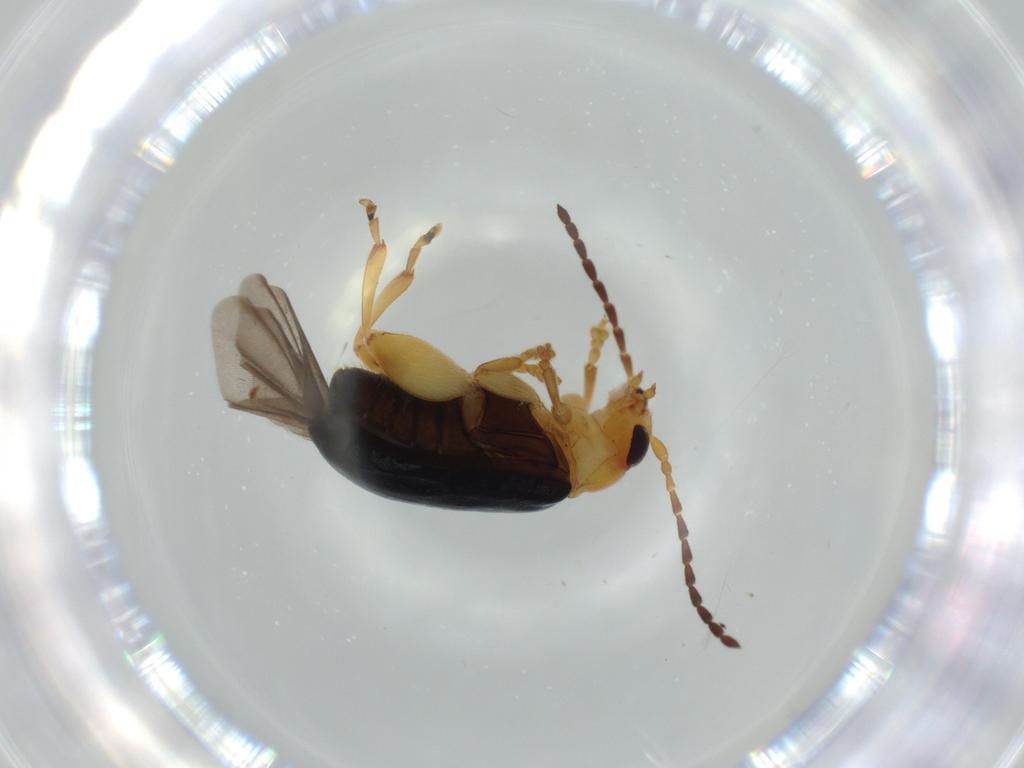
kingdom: Animalia
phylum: Arthropoda
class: Insecta
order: Coleoptera
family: Chrysomelidae
